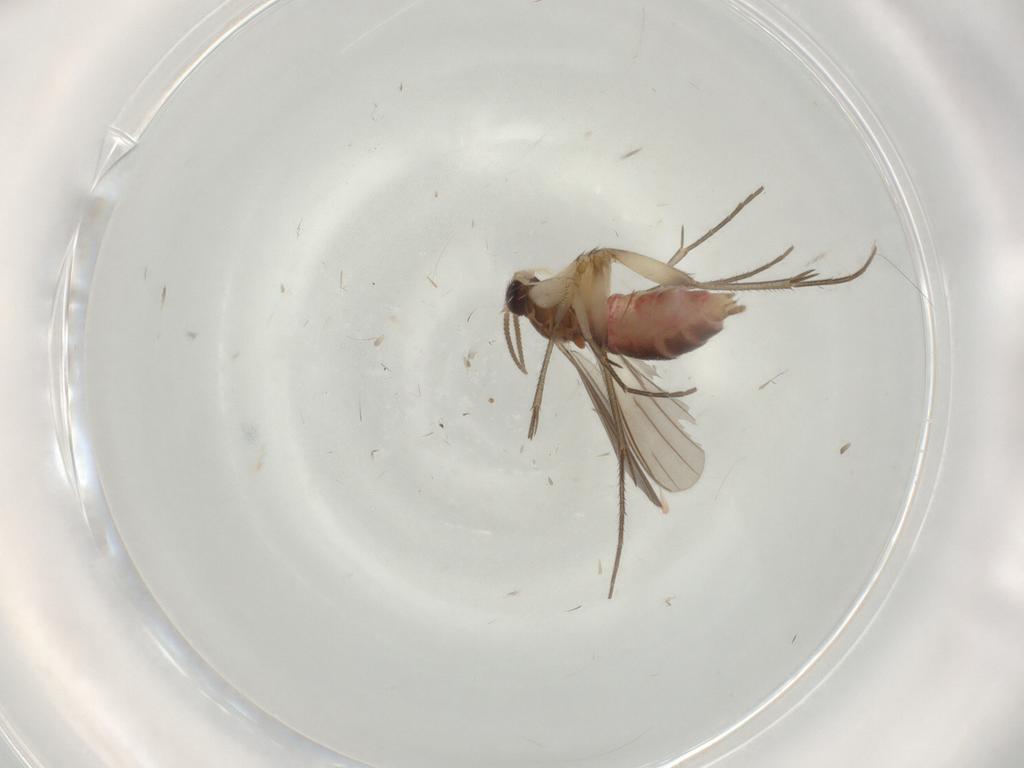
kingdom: Animalia
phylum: Arthropoda
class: Insecta
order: Diptera
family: Mycetophilidae
